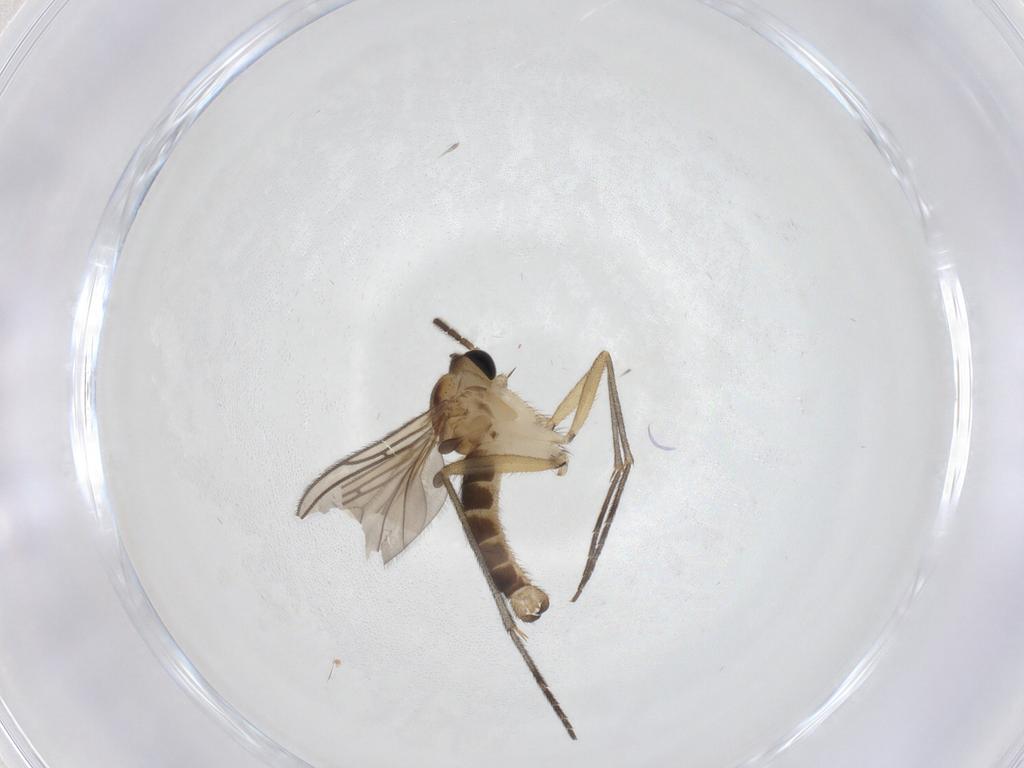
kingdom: Animalia
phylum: Arthropoda
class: Insecta
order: Diptera
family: Sciaridae
